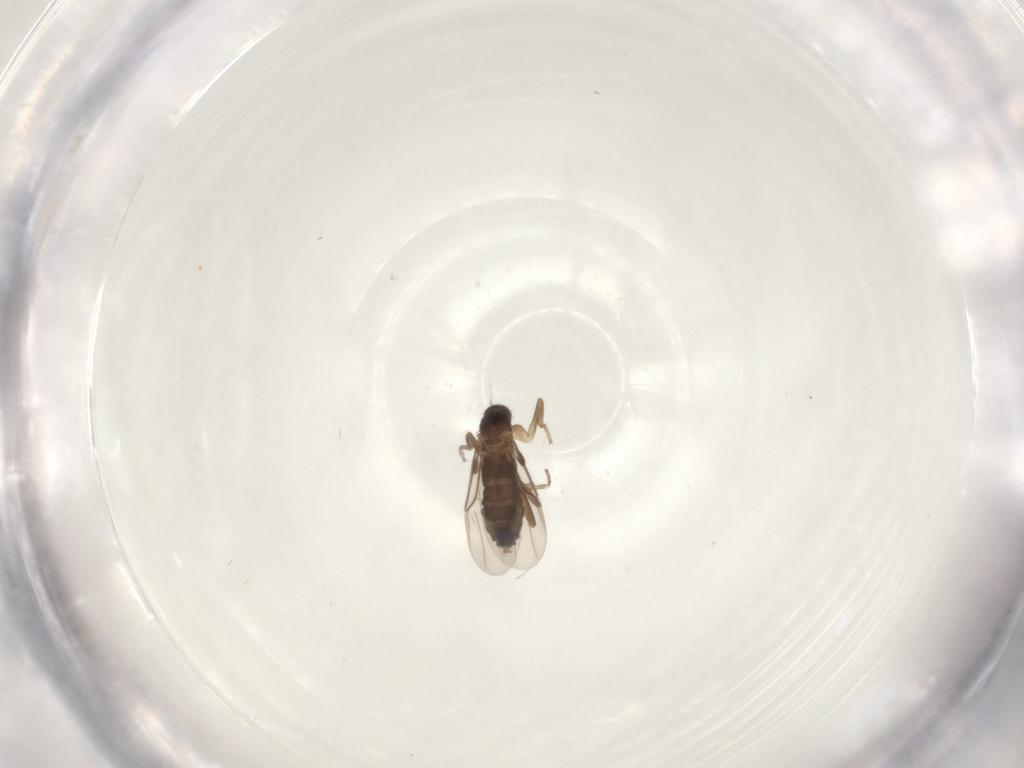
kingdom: Animalia
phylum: Arthropoda
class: Insecta
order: Diptera
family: Phoridae
